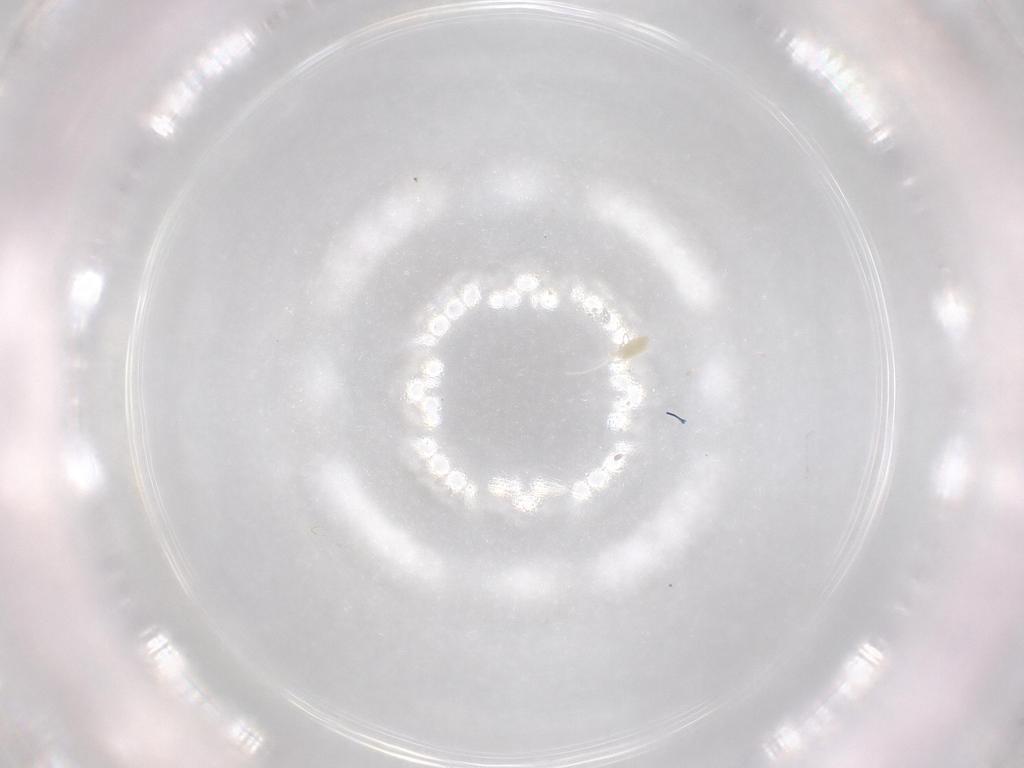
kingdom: Animalia
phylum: Arthropoda
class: Arachnida
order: Trombidiformes
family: Eupodidae
